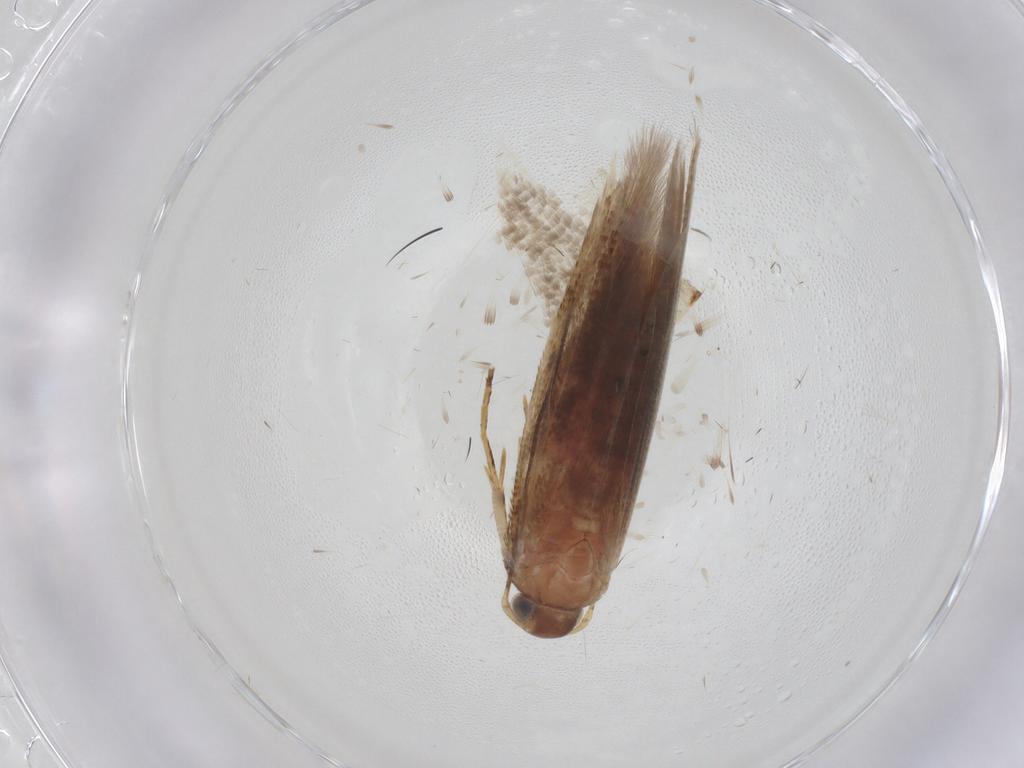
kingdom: Animalia
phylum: Arthropoda
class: Insecta
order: Lepidoptera
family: Gelechiidae
